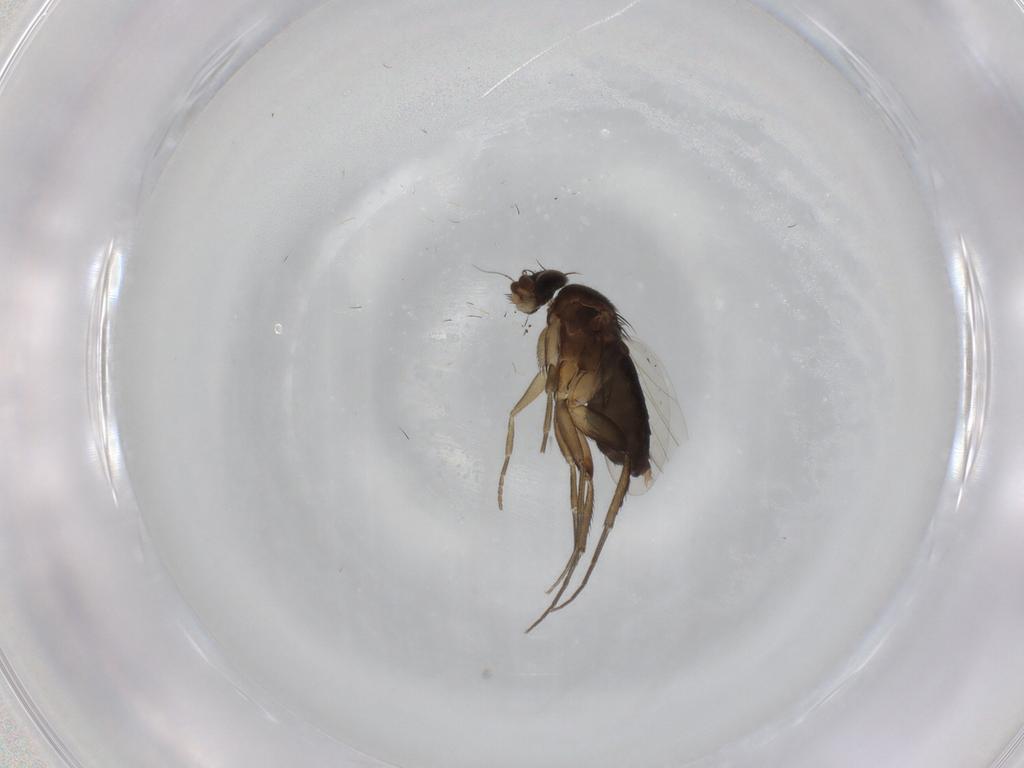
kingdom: Animalia
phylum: Arthropoda
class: Insecta
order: Diptera
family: Phoridae
